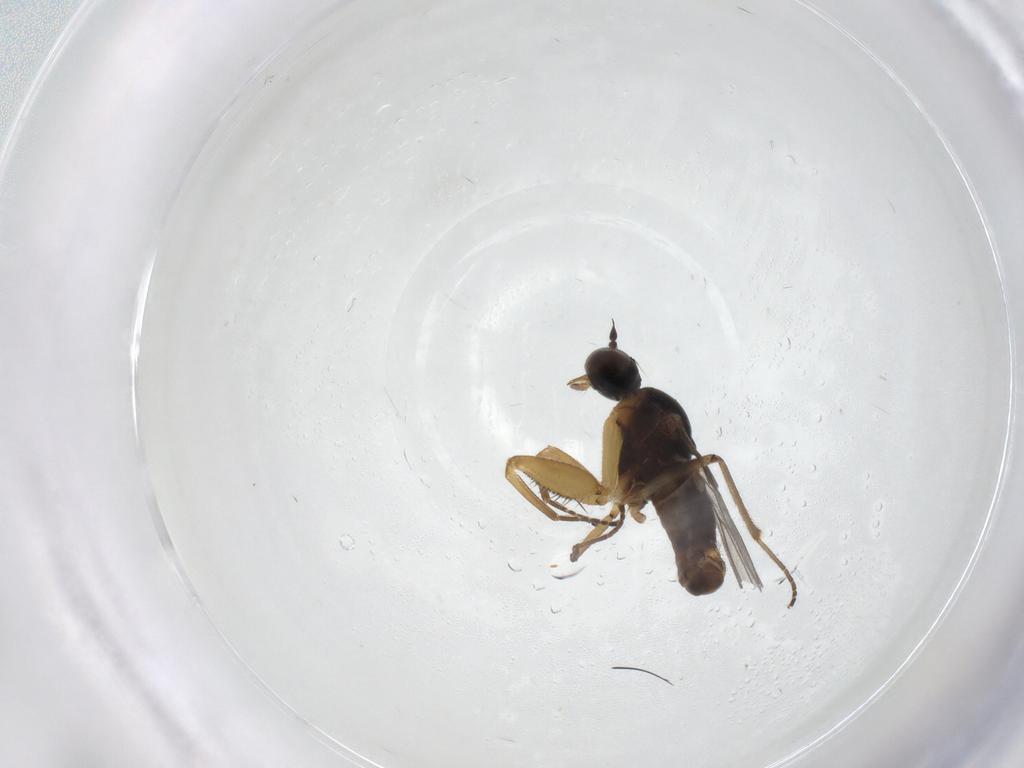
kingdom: Animalia
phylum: Arthropoda
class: Insecta
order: Diptera
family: Empididae
